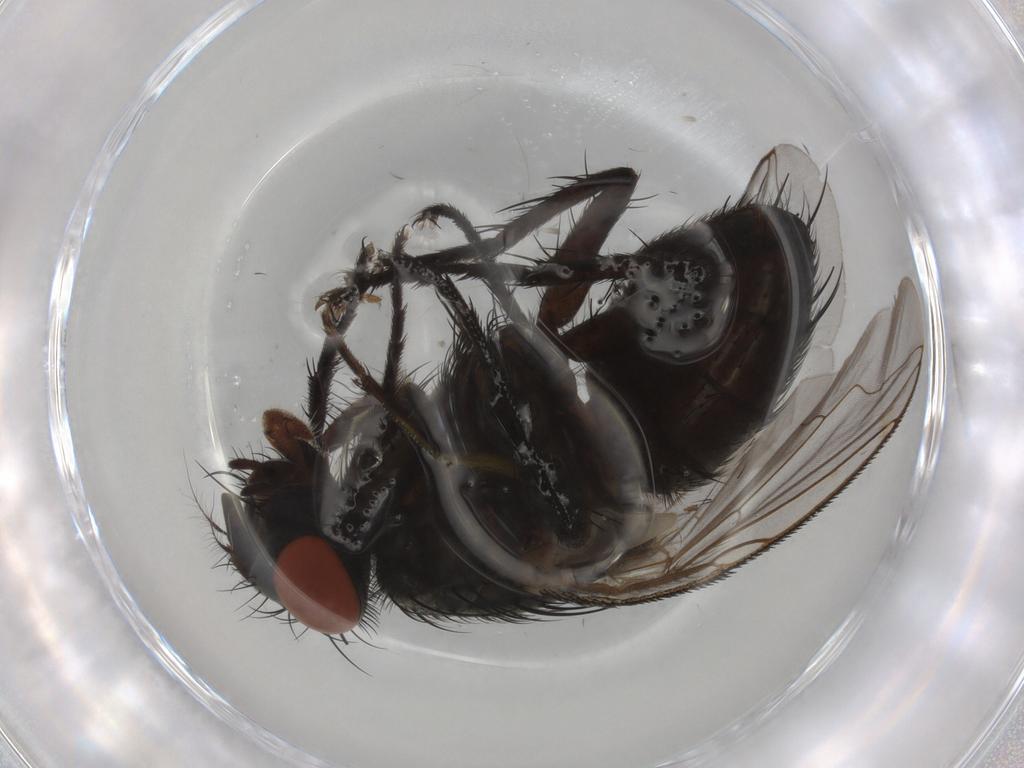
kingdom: Animalia
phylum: Arthropoda
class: Insecta
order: Diptera
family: Sarcophagidae
